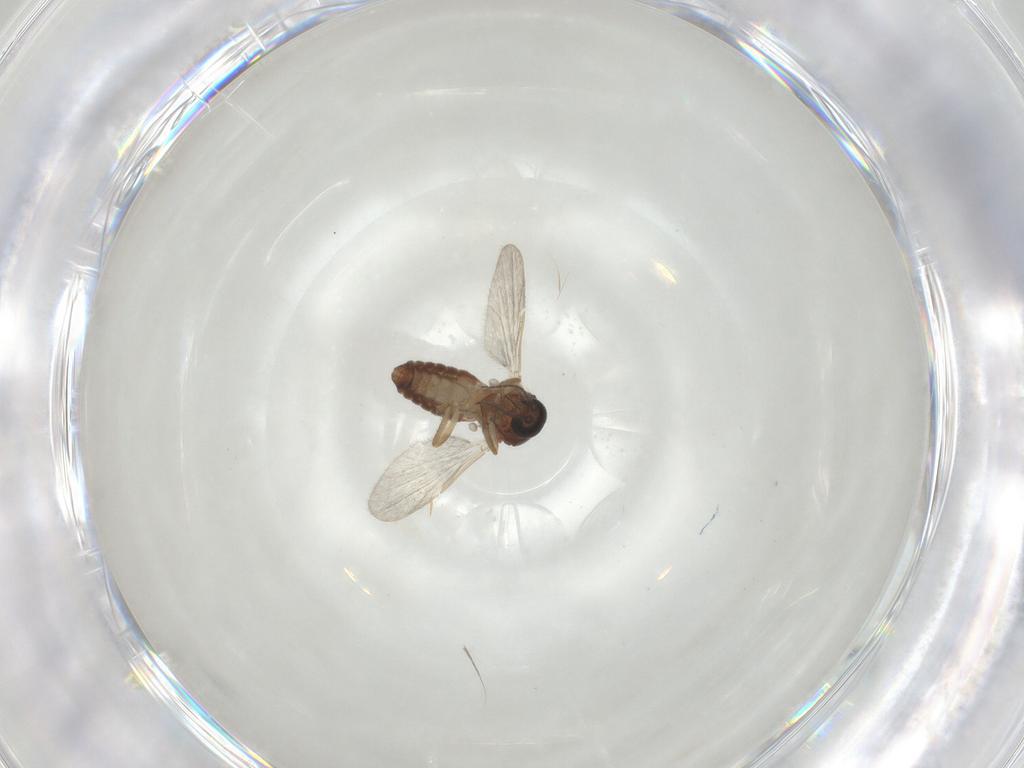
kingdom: Animalia
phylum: Arthropoda
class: Insecta
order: Diptera
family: Ceratopogonidae
